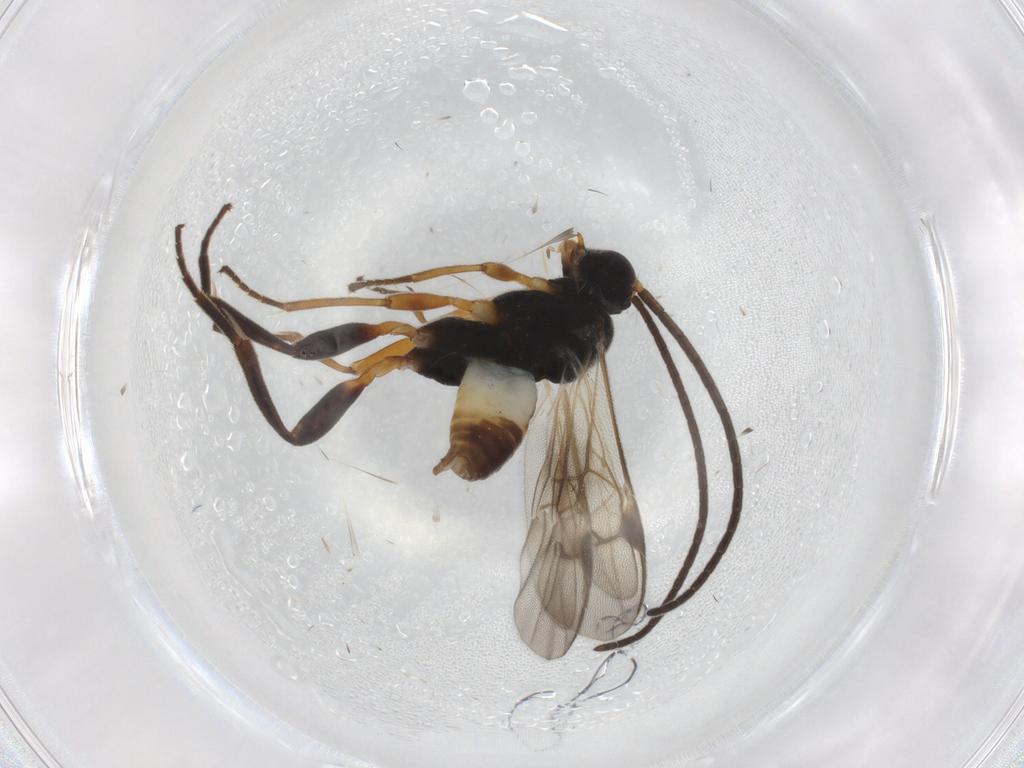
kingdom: Animalia
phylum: Arthropoda
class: Insecta
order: Hymenoptera
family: Braconidae
